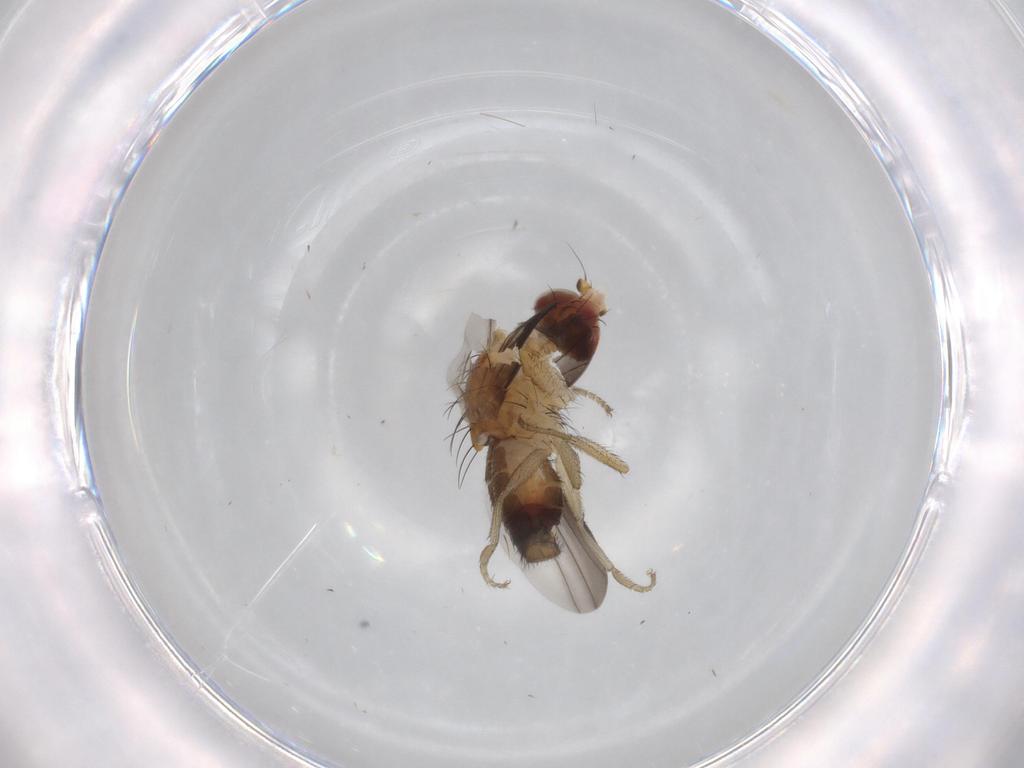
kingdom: Animalia
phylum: Arthropoda
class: Insecta
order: Diptera
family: Heleomyzidae
